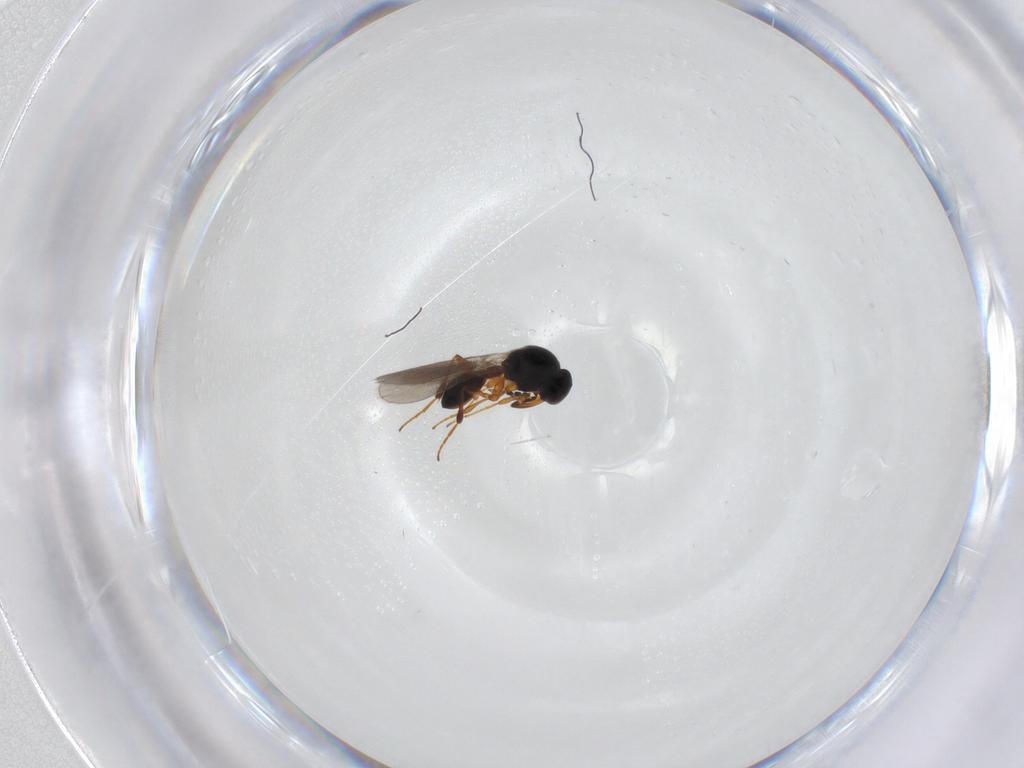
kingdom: Animalia
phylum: Arthropoda
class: Insecta
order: Hymenoptera
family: Platygastridae
